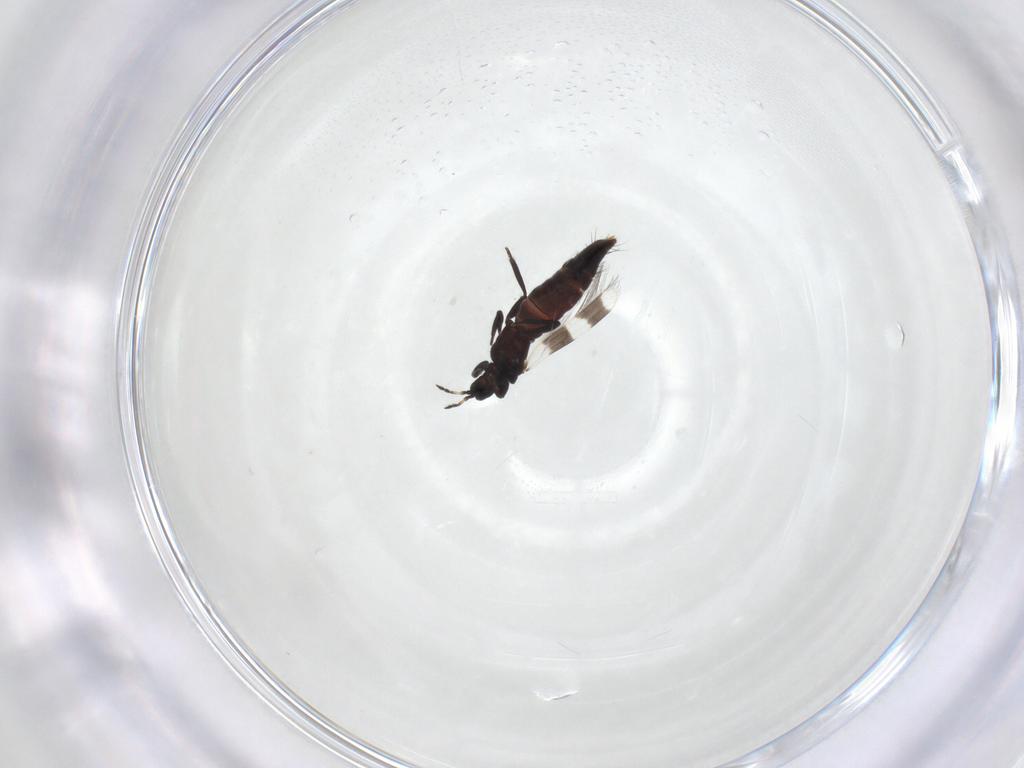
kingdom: Animalia
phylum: Arthropoda
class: Insecta
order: Thysanoptera
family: Aeolothripidae
